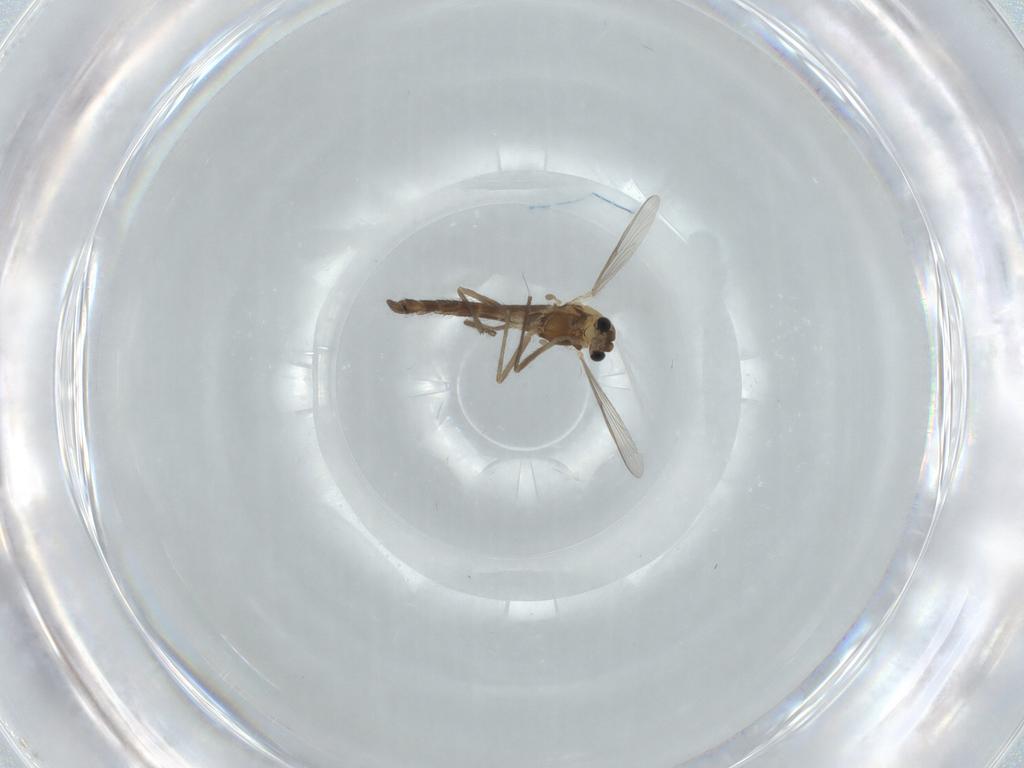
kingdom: Animalia
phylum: Arthropoda
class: Insecta
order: Diptera
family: Chironomidae
